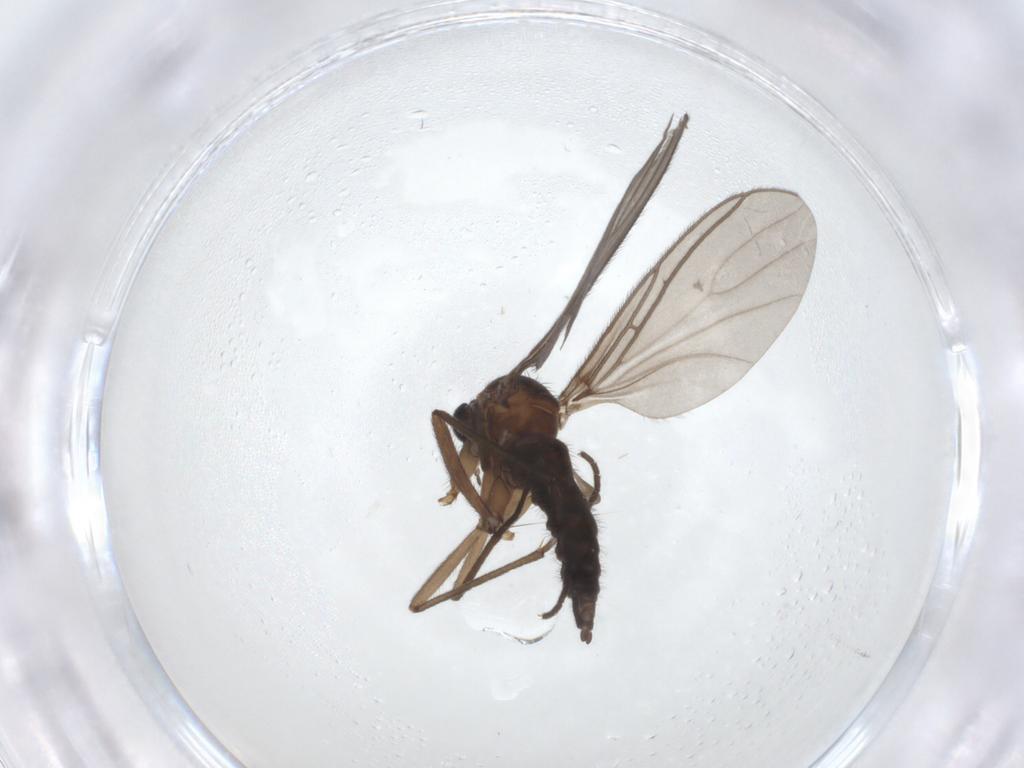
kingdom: Animalia
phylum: Arthropoda
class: Insecta
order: Diptera
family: Sciaridae
